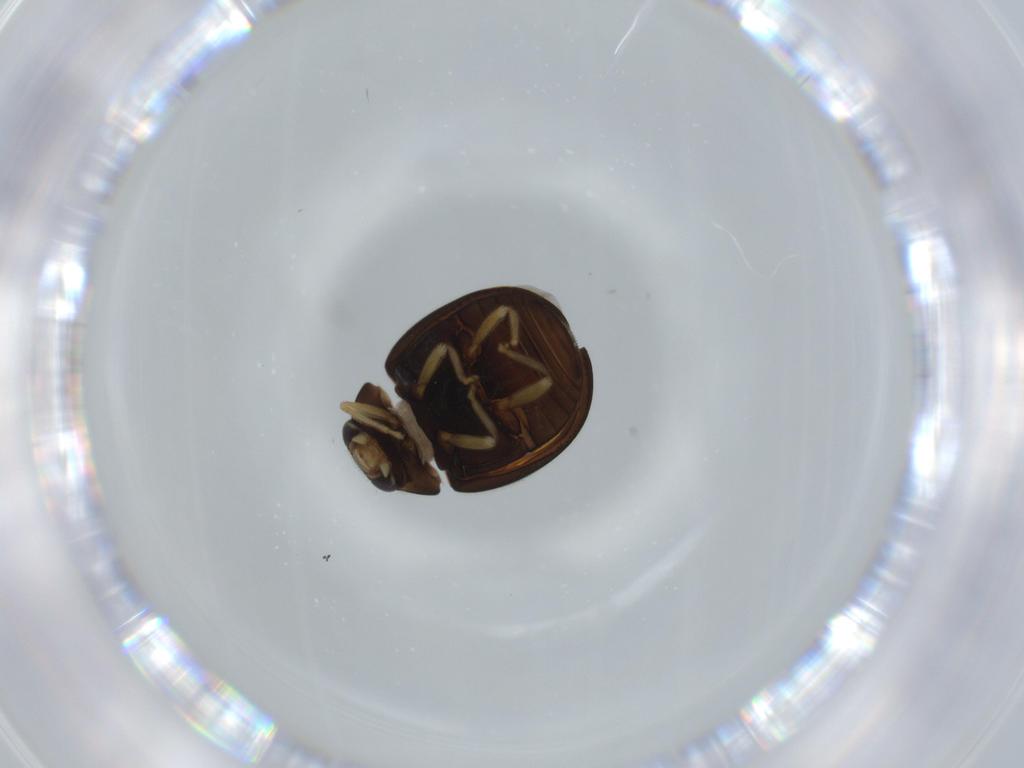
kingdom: Animalia
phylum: Arthropoda
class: Insecta
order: Coleoptera
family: Coccinellidae
